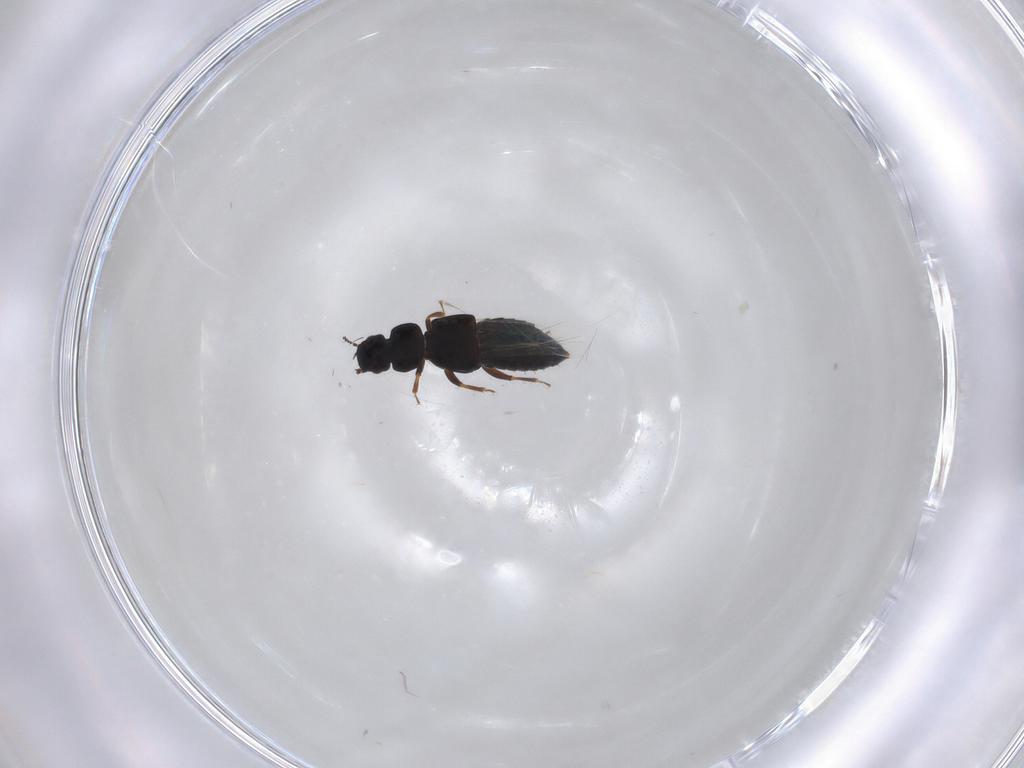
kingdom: Animalia
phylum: Arthropoda
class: Insecta
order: Coleoptera
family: Staphylinidae
